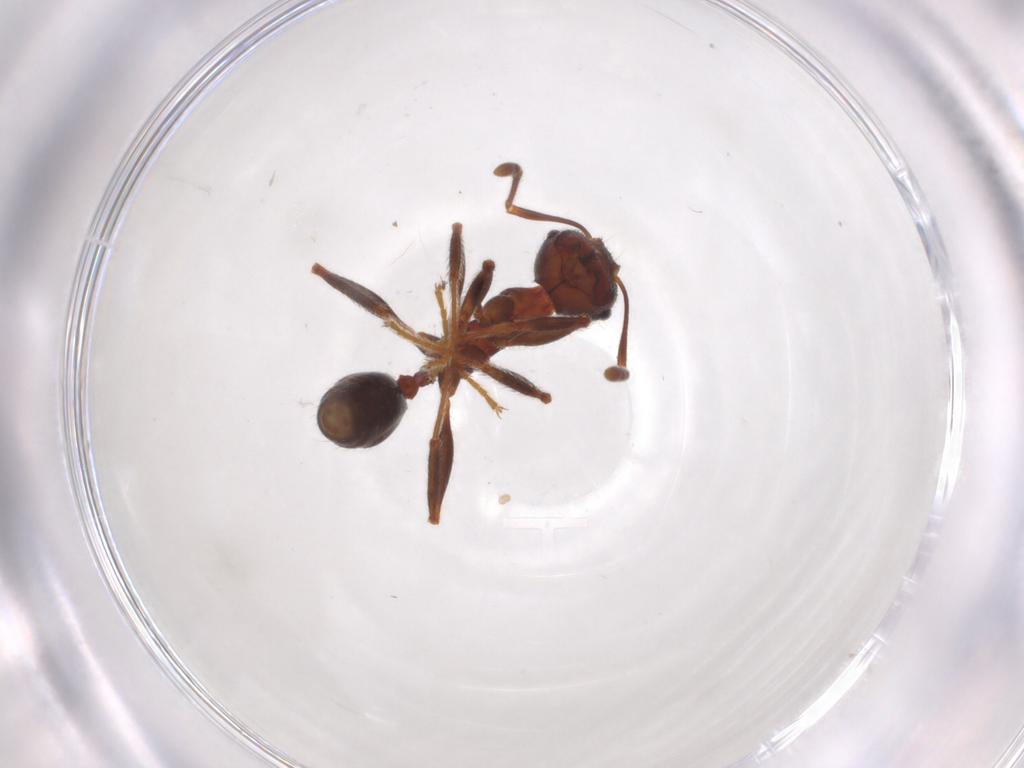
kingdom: Animalia
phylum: Arthropoda
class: Insecta
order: Hymenoptera
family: Formicidae
